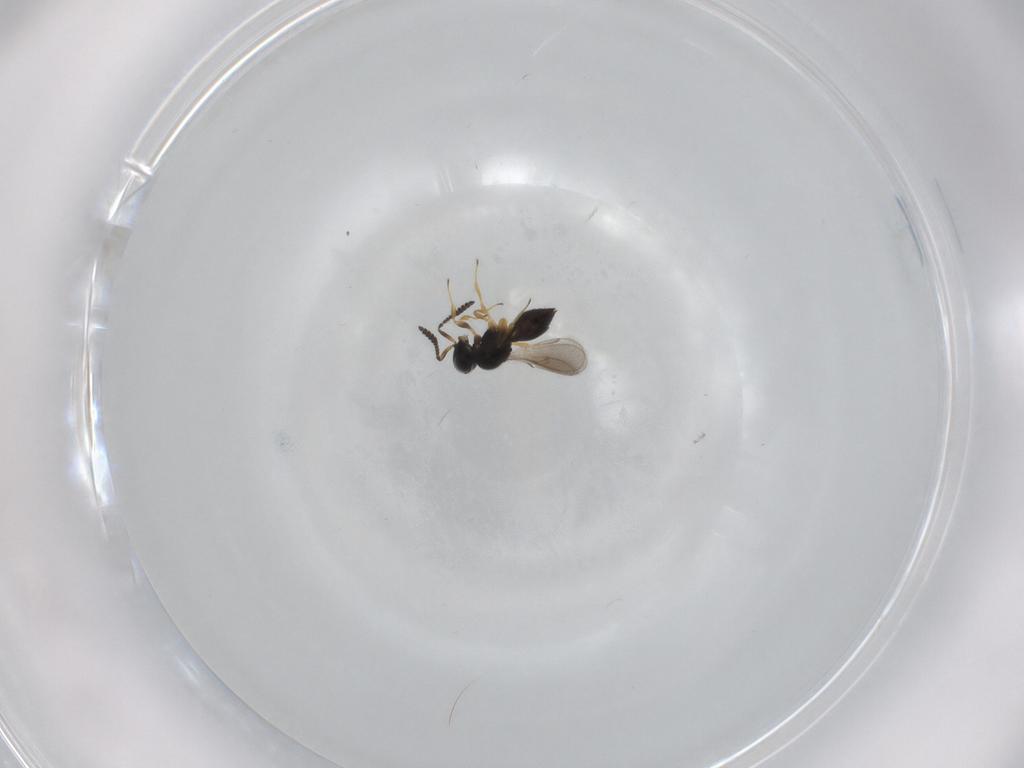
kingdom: Animalia
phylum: Arthropoda
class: Insecta
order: Hymenoptera
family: Scelionidae
